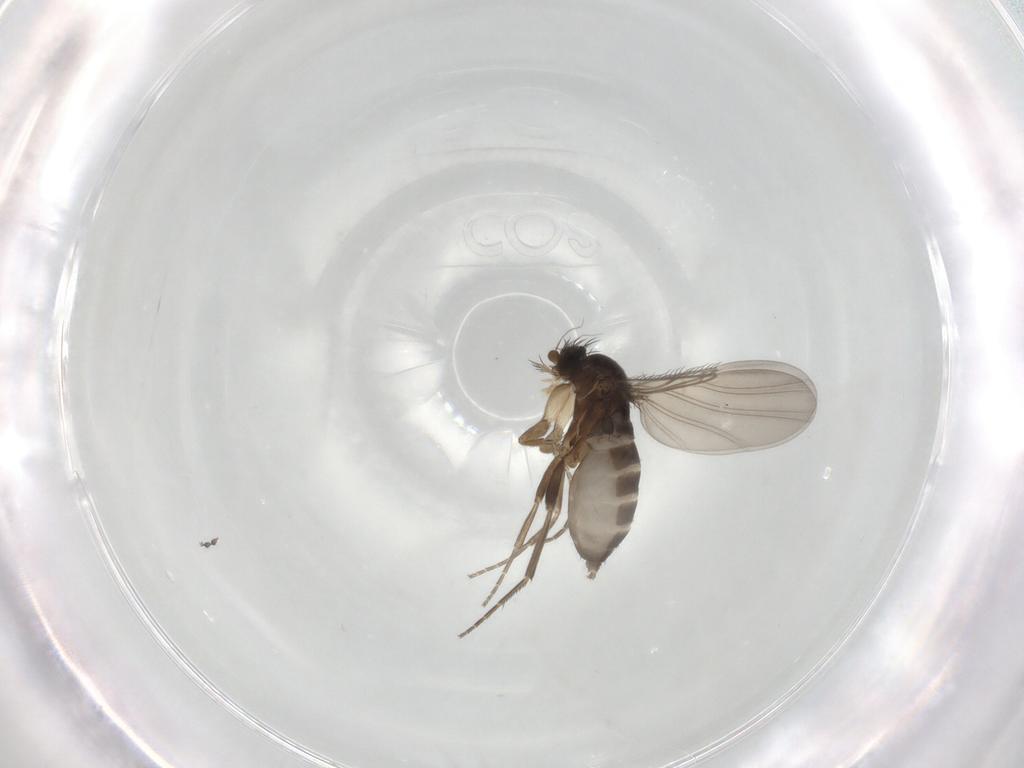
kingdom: Animalia
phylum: Arthropoda
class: Insecta
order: Diptera
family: Phoridae
